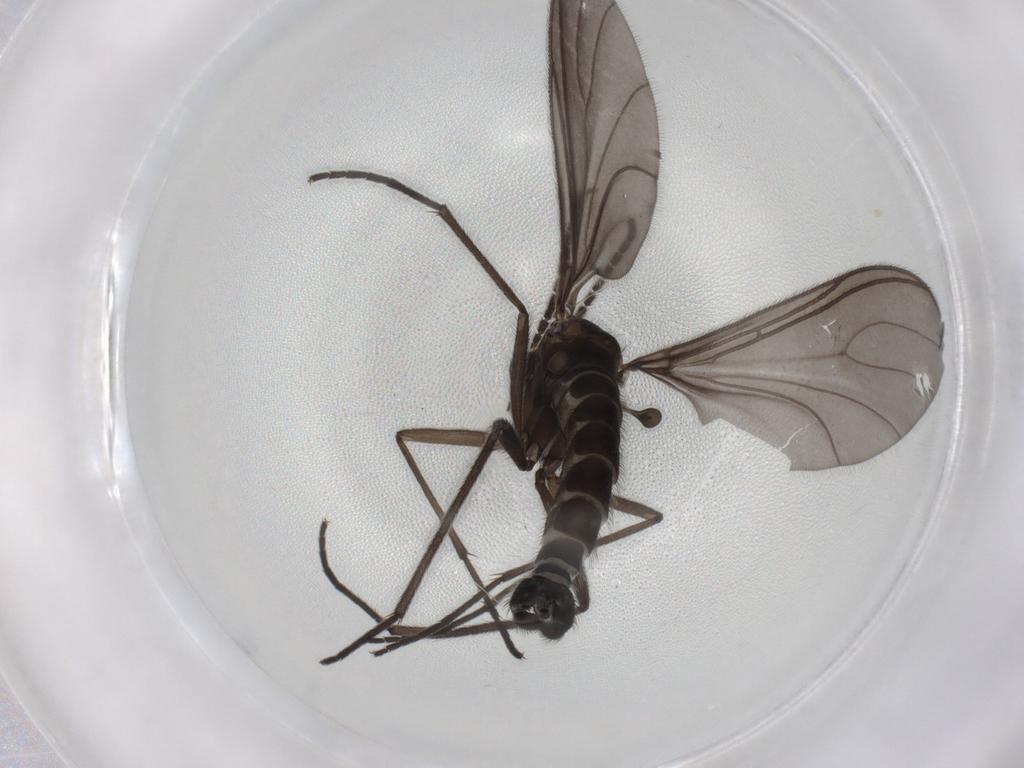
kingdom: Animalia
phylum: Arthropoda
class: Insecta
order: Diptera
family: Sciaridae
